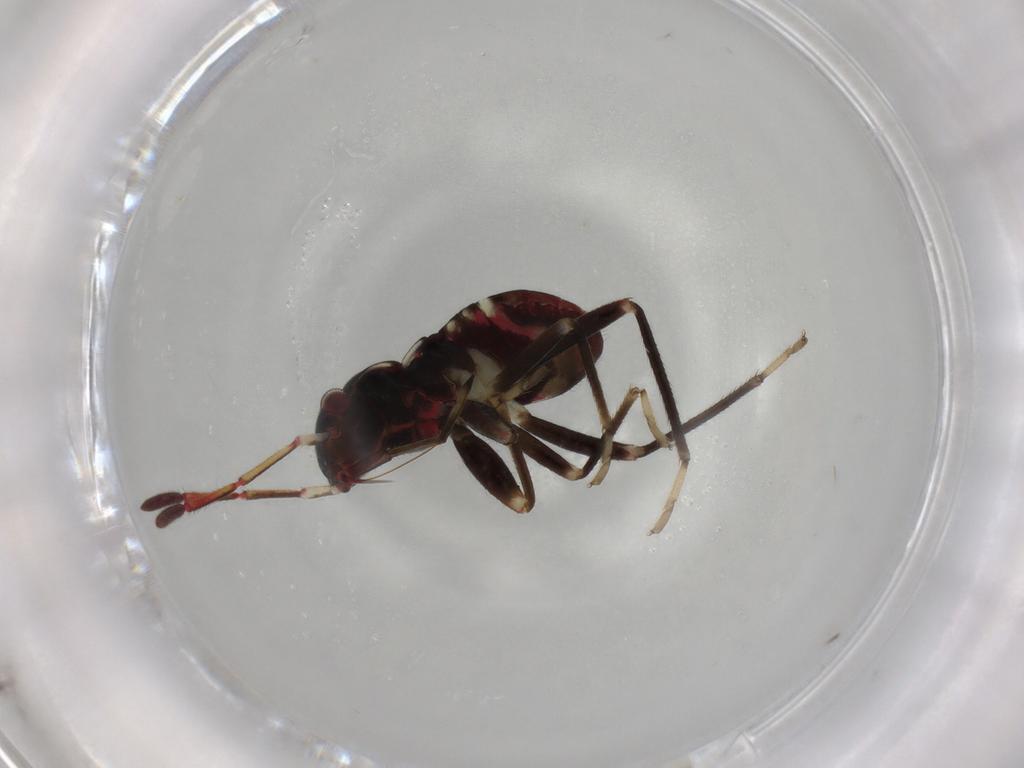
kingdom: Animalia
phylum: Arthropoda
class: Insecta
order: Hemiptera
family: Rhyparochromidae
